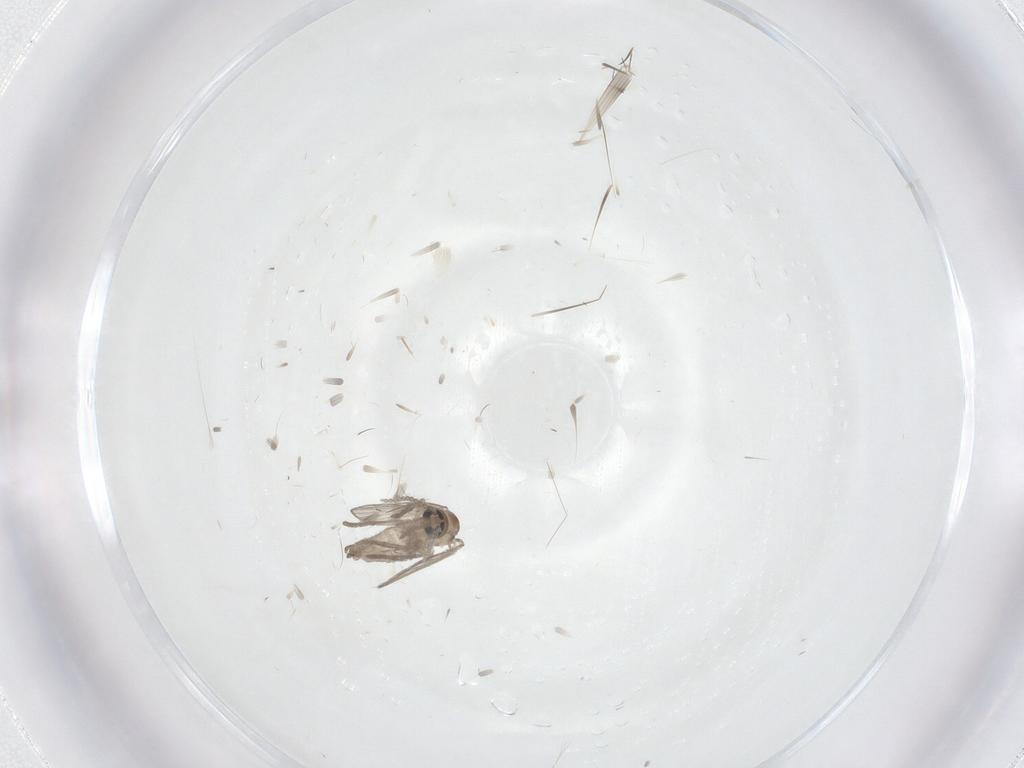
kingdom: Animalia
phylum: Arthropoda
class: Insecta
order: Diptera
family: Psychodidae
